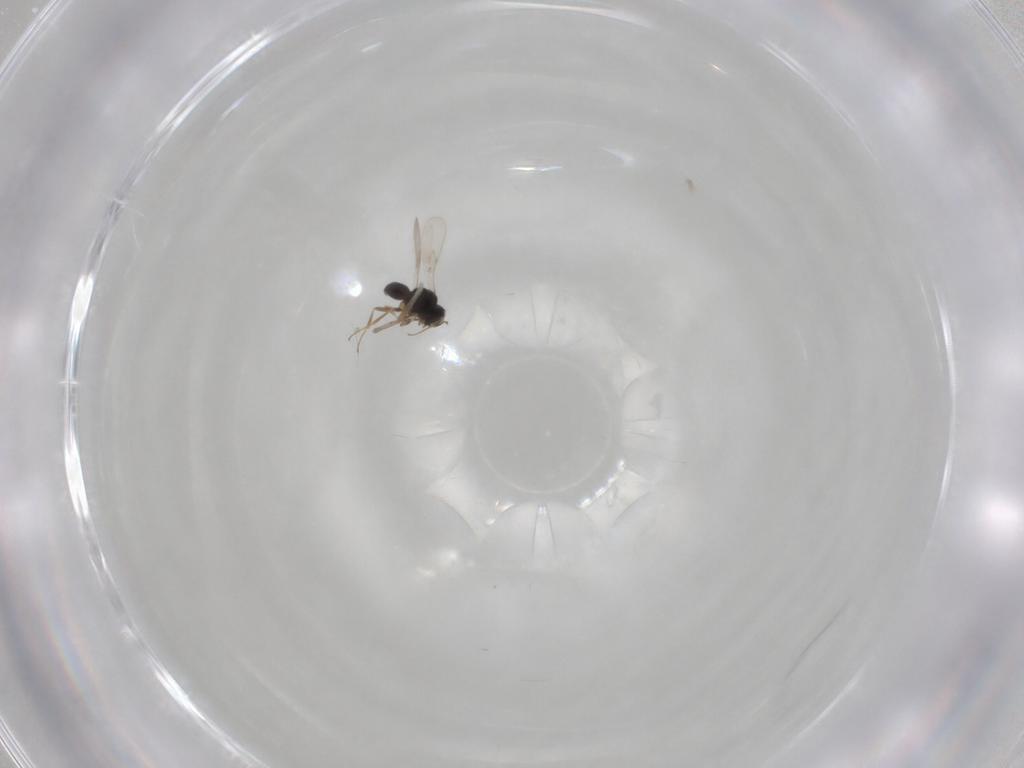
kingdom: Animalia
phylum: Arthropoda
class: Insecta
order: Hymenoptera
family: Scelionidae
